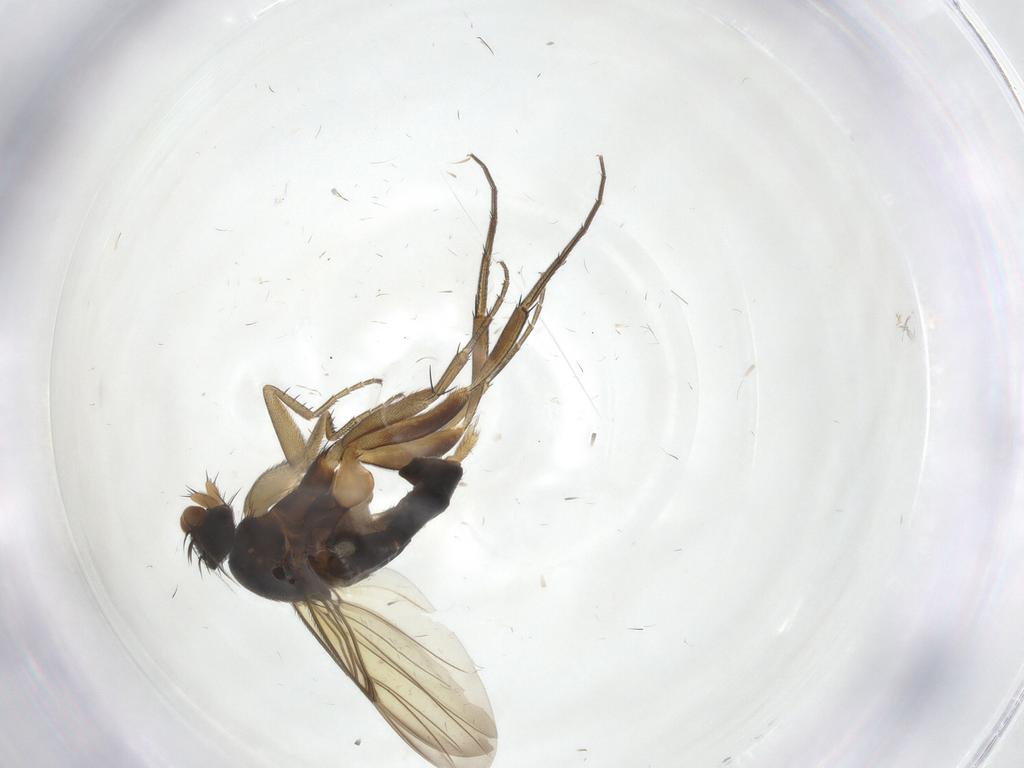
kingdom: Animalia
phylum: Arthropoda
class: Insecta
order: Diptera
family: Phoridae
